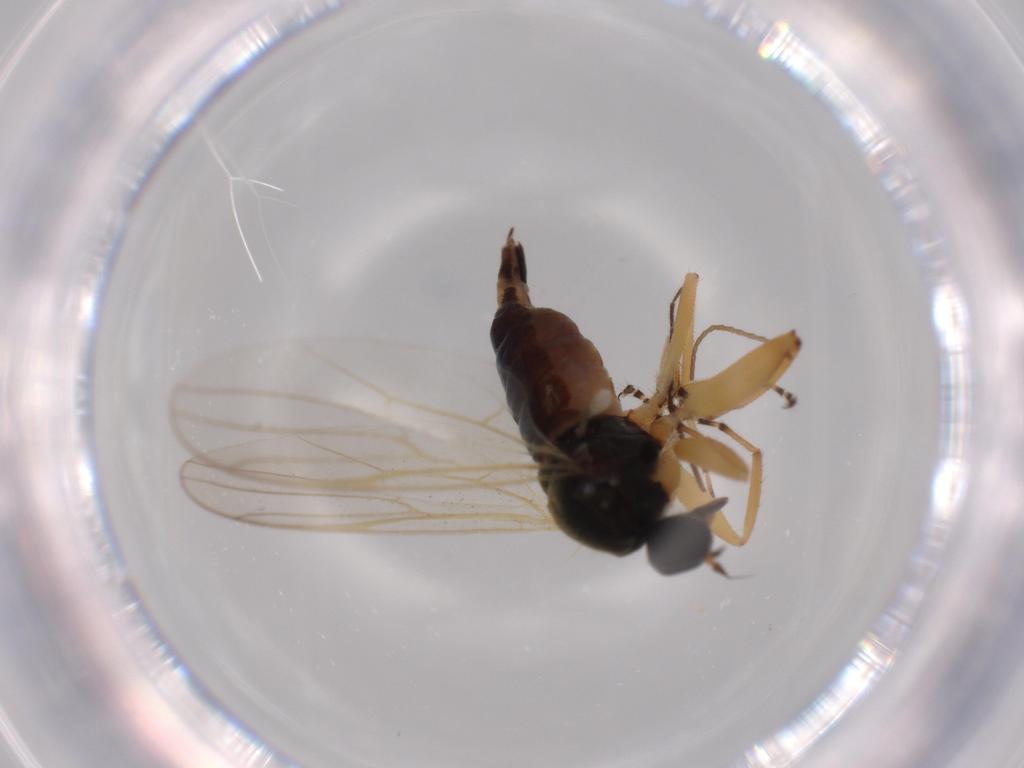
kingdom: Animalia
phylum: Arthropoda
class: Insecta
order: Diptera
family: Hybotidae
